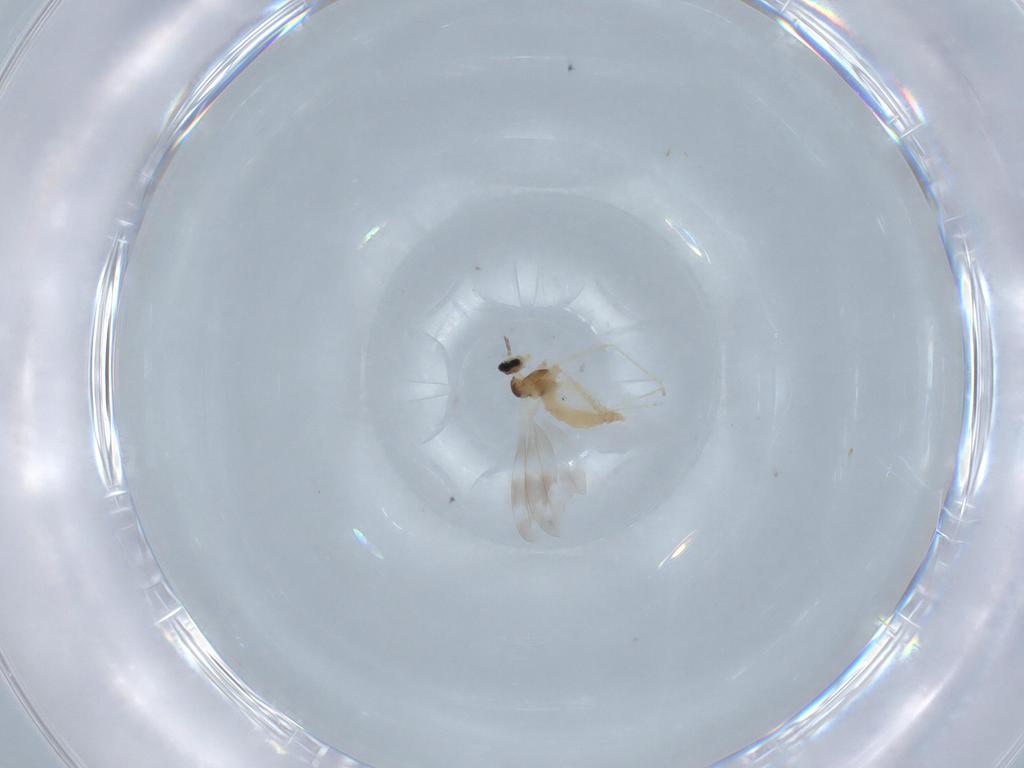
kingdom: Animalia
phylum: Arthropoda
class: Insecta
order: Diptera
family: Cecidomyiidae
